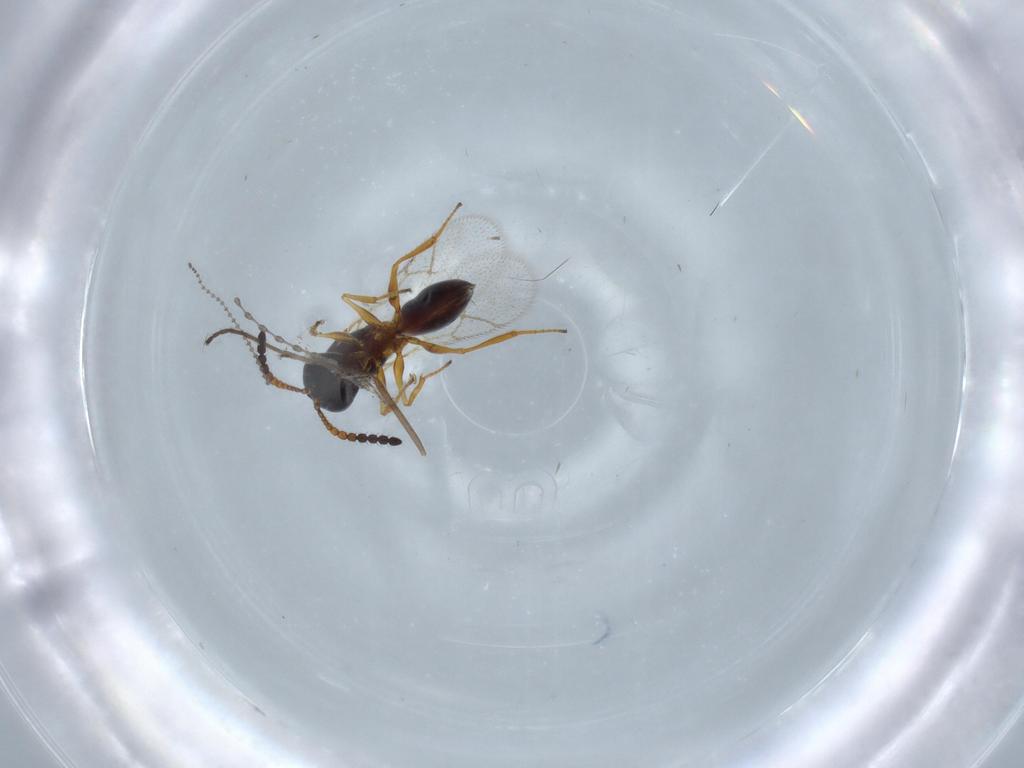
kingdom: Animalia
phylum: Arthropoda
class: Insecta
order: Hymenoptera
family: Figitidae
